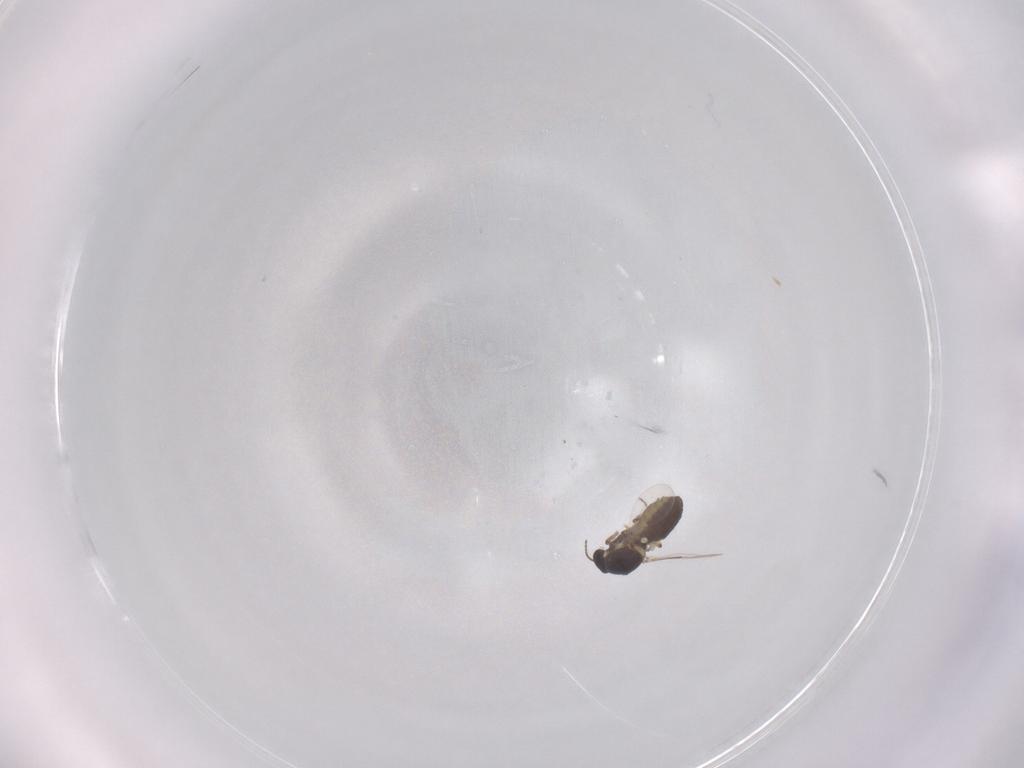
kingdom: Animalia
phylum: Arthropoda
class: Insecta
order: Diptera
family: Ceratopogonidae
